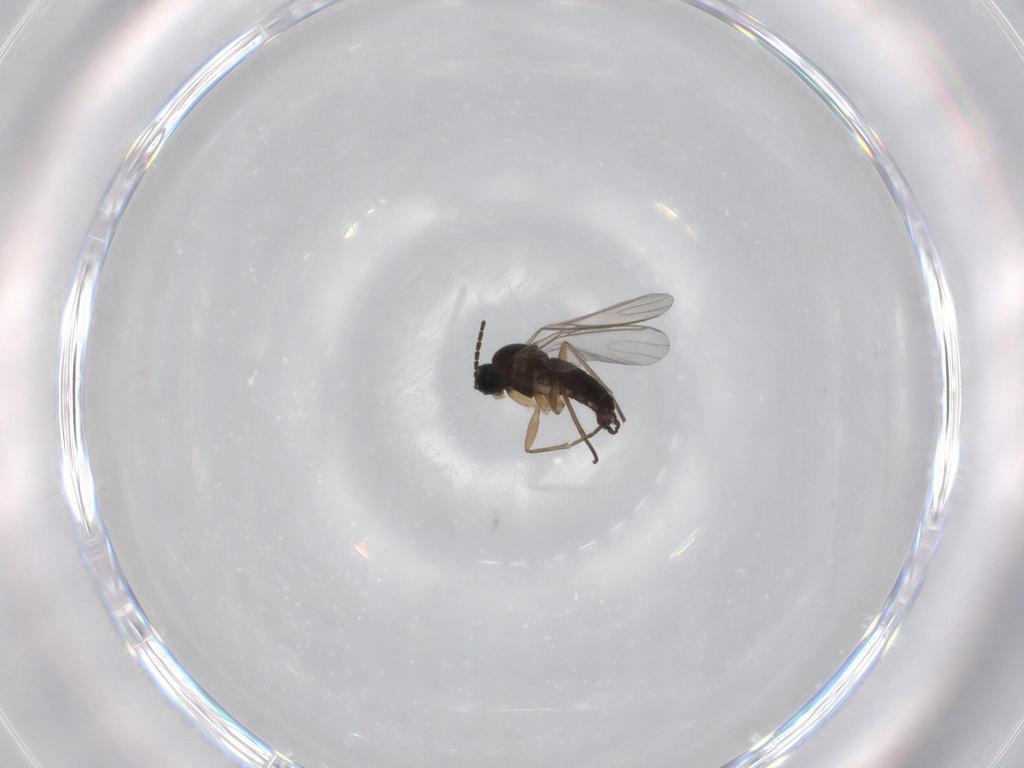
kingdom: Animalia
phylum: Arthropoda
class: Insecta
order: Diptera
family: Sciaridae
